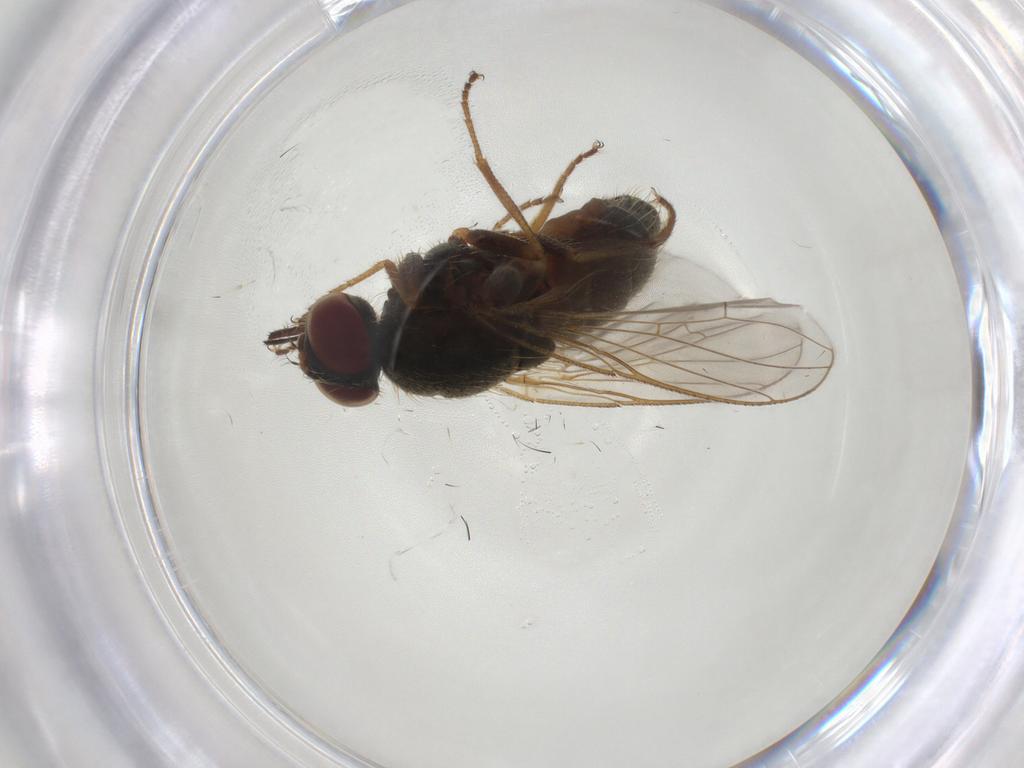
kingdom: Animalia
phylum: Arthropoda
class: Insecta
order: Diptera
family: Muscidae
